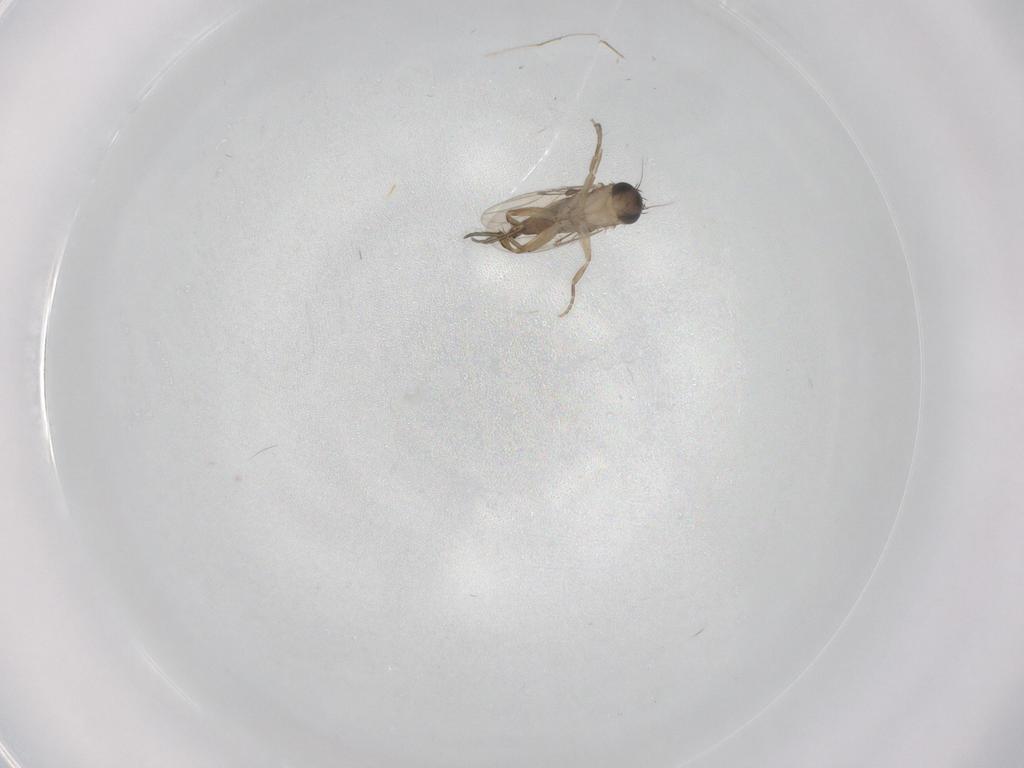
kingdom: Animalia
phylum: Arthropoda
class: Insecta
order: Diptera
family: Phoridae
